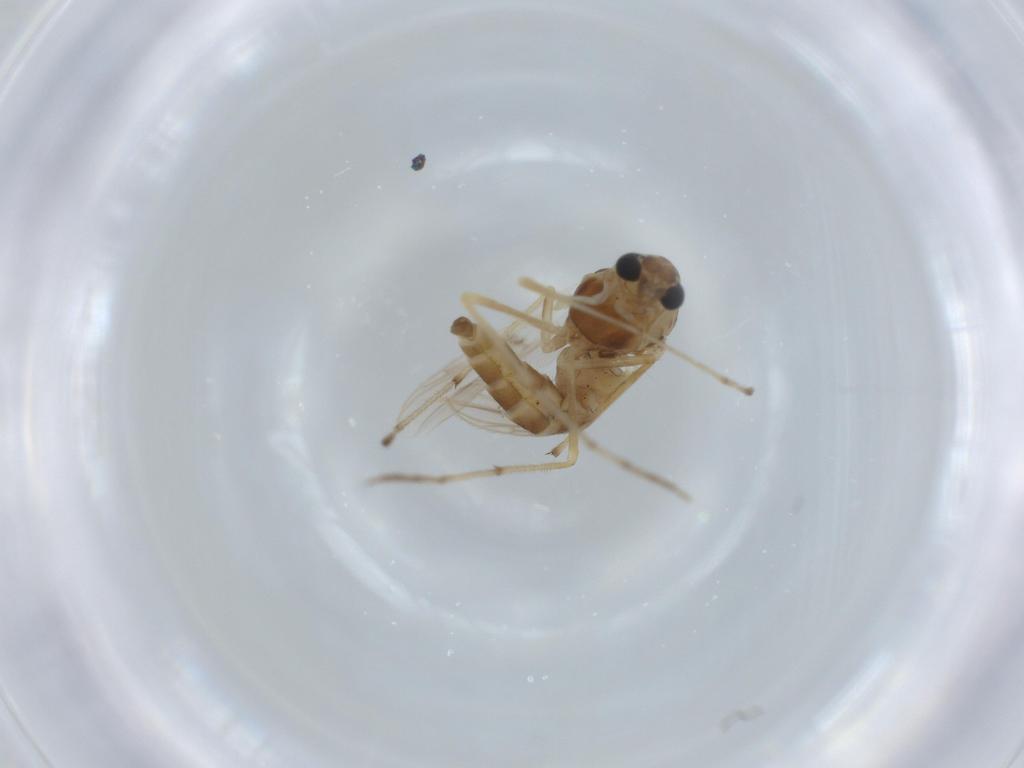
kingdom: Animalia
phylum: Arthropoda
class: Insecta
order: Diptera
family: Chironomidae
